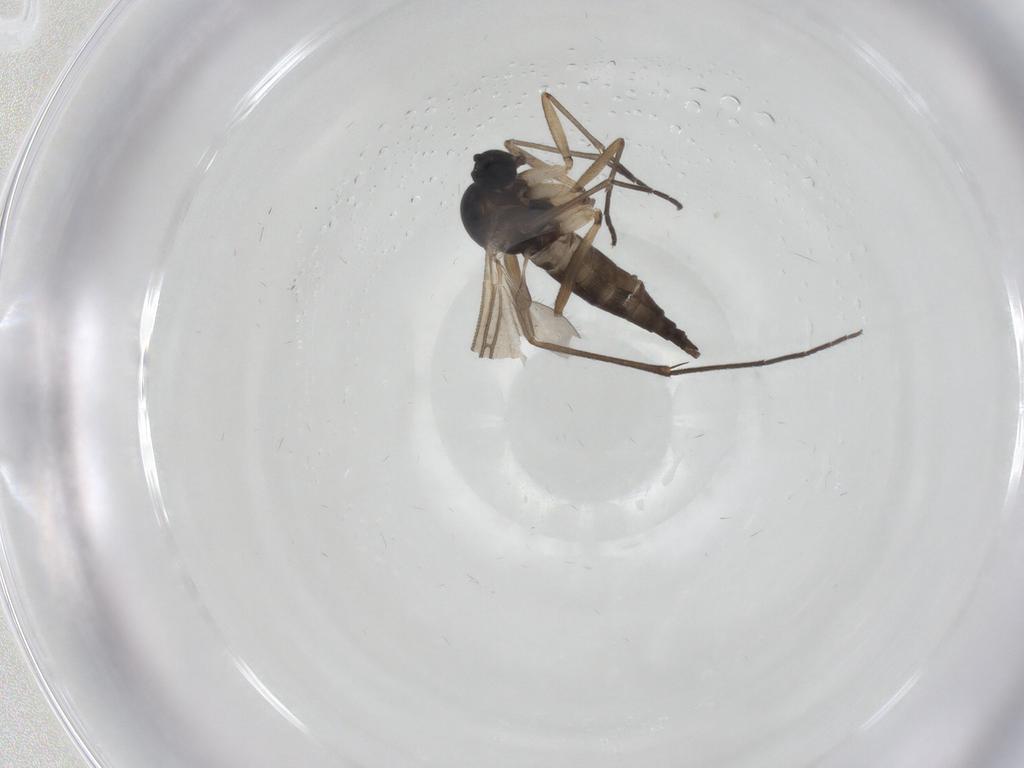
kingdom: Animalia
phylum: Arthropoda
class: Insecta
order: Diptera
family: Sciaridae
